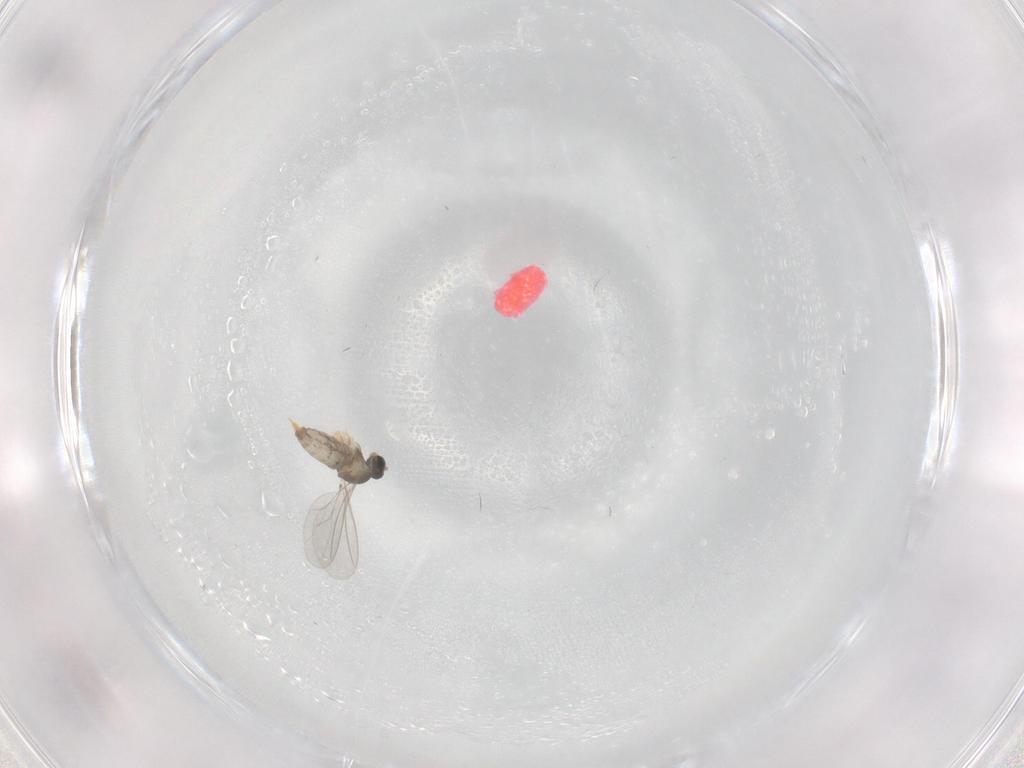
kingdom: Animalia
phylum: Arthropoda
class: Insecta
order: Diptera
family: Cecidomyiidae
